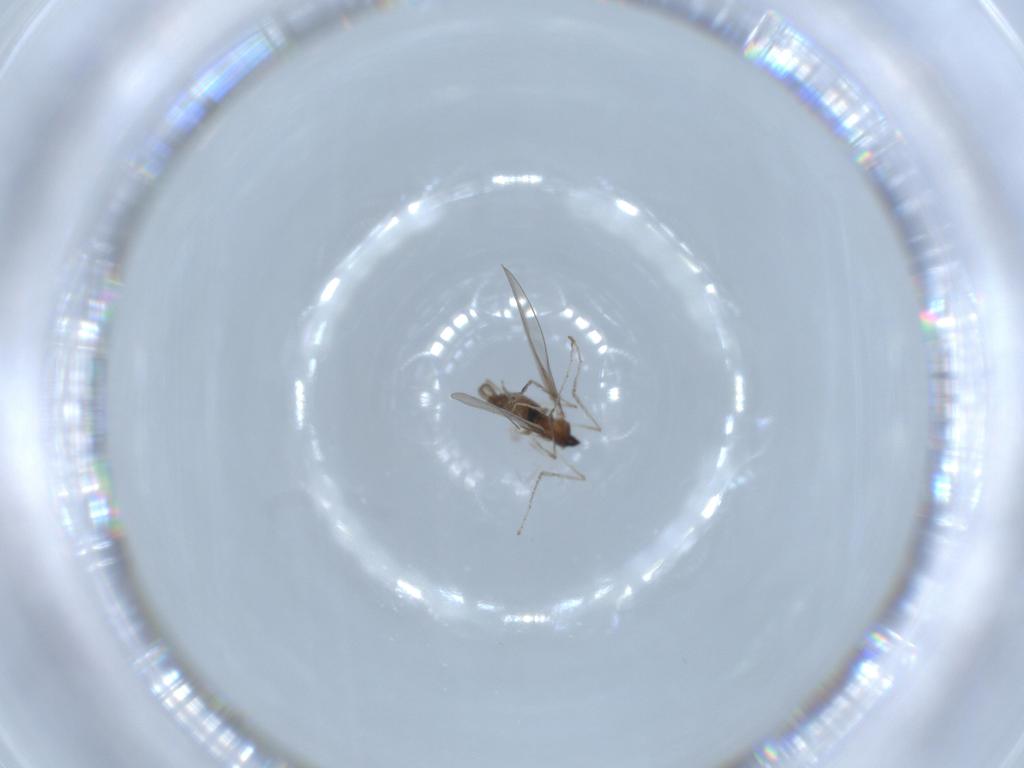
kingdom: Animalia
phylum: Arthropoda
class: Insecta
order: Diptera
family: Cecidomyiidae
